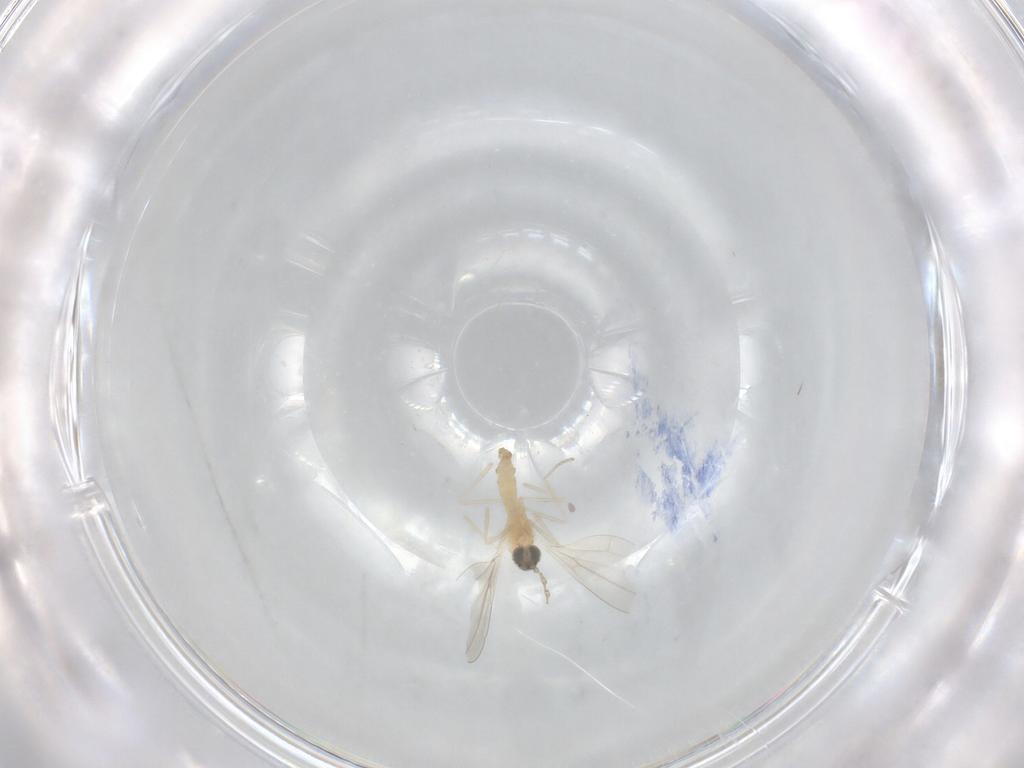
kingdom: Animalia
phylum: Arthropoda
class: Insecta
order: Diptera
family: Cecidomyiidae
